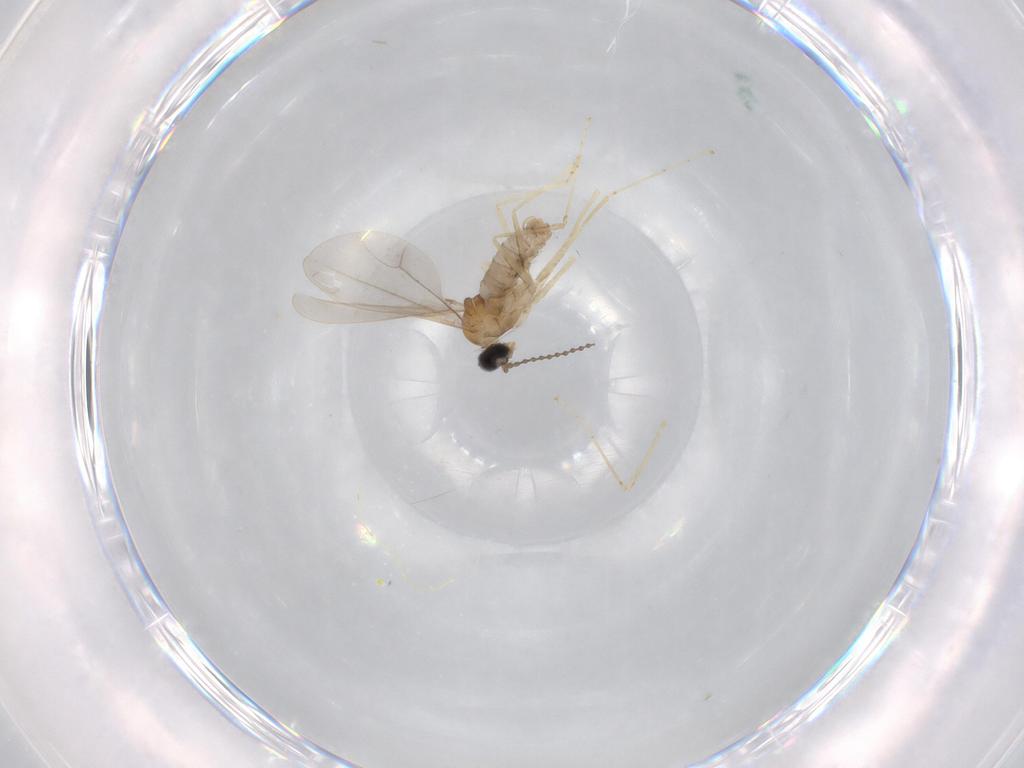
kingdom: Animalia
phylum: Arthropoda
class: Insecta
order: Diptera
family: Cecidomyiidae
